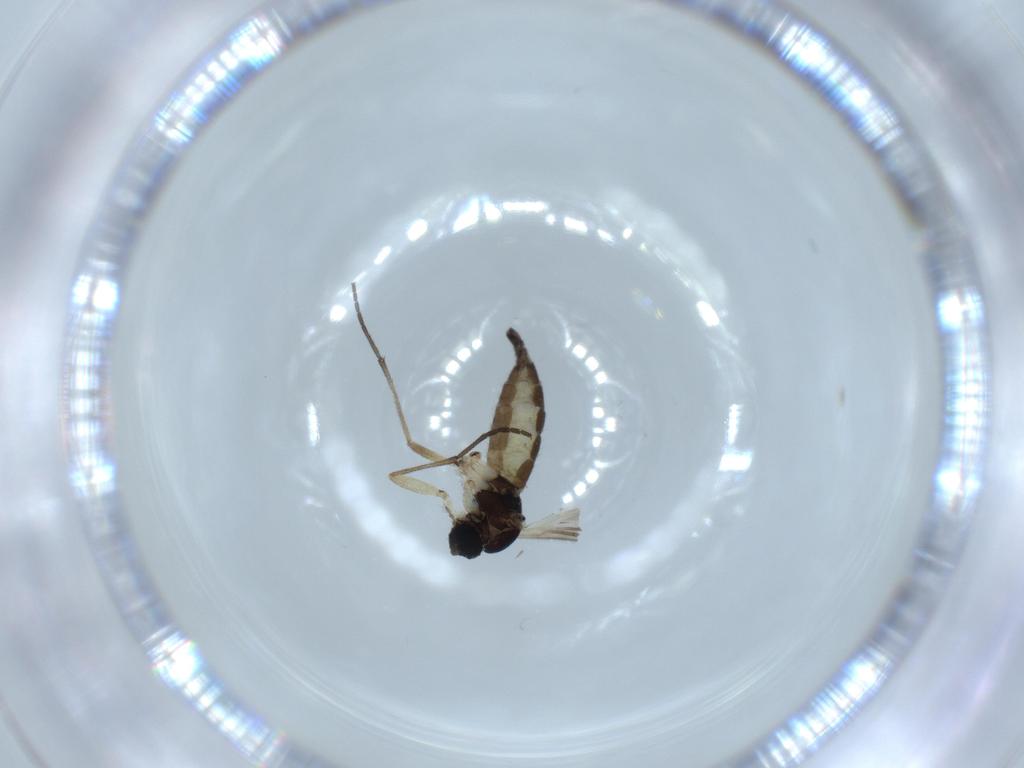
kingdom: Animalia
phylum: Arthropoda
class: Insecta
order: Diptera
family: Sciaridae
